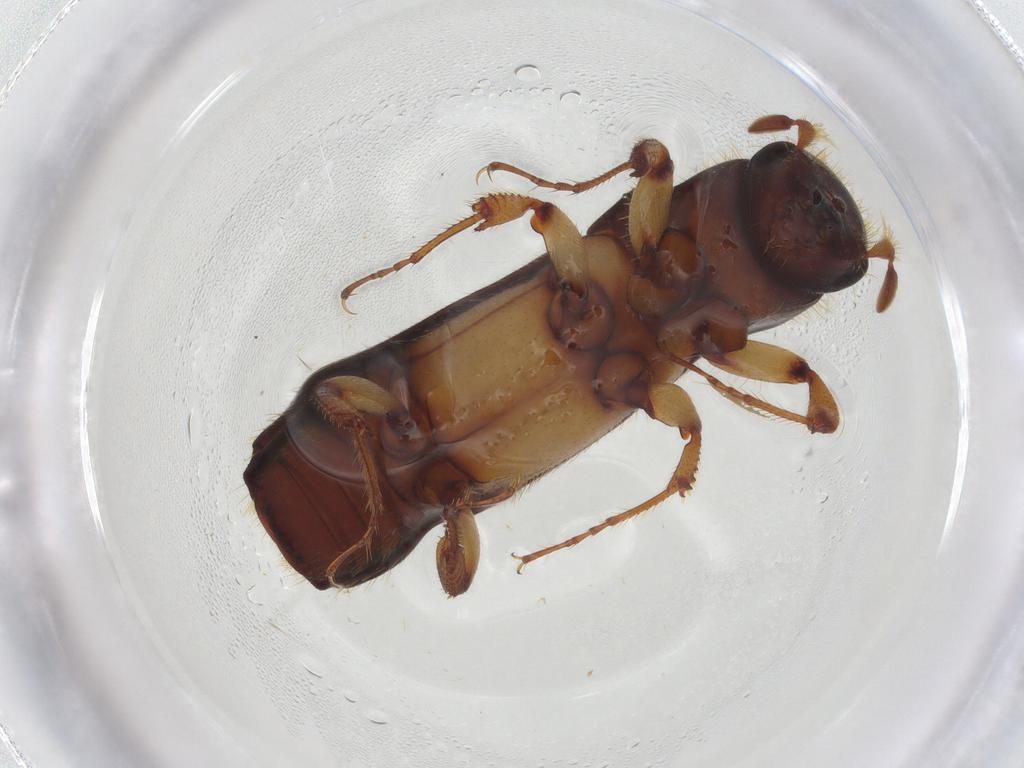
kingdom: Animalia
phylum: Arthropoda
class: Insecta
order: Coleoptera
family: Curculionidae
